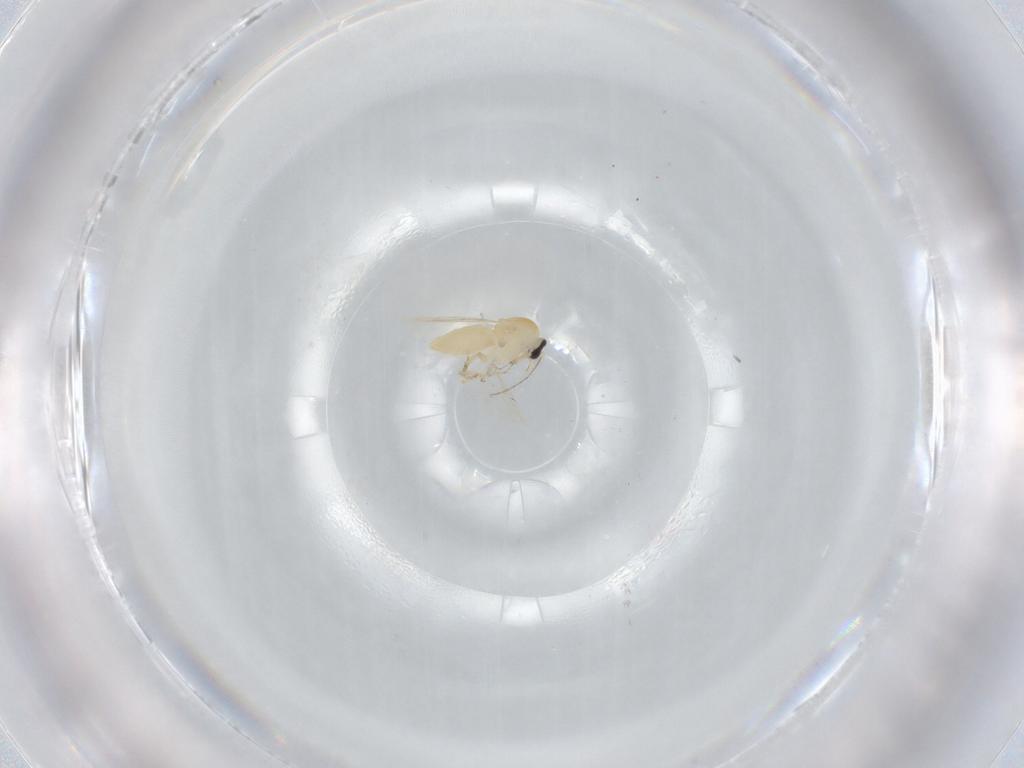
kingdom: Animalia
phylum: Arthropoda
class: Insecta
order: Diptera
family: Ceratopogonidae
